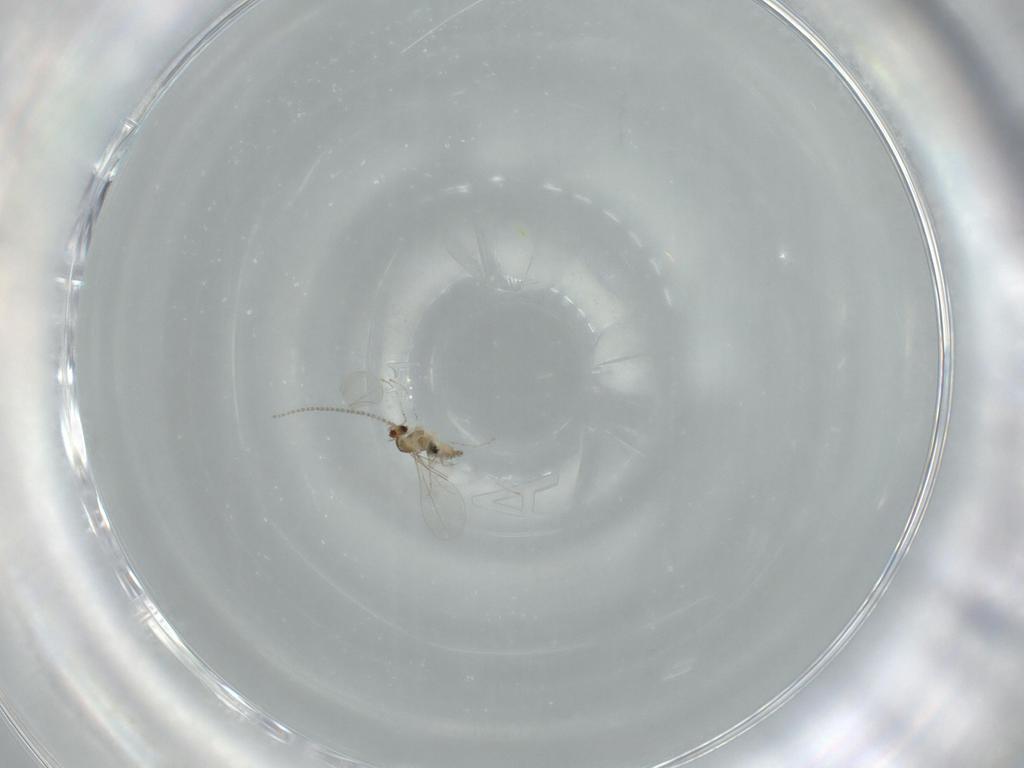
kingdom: Animalia
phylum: Arthropoda
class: Insecta
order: Diptera
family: Cecidomyiidae
